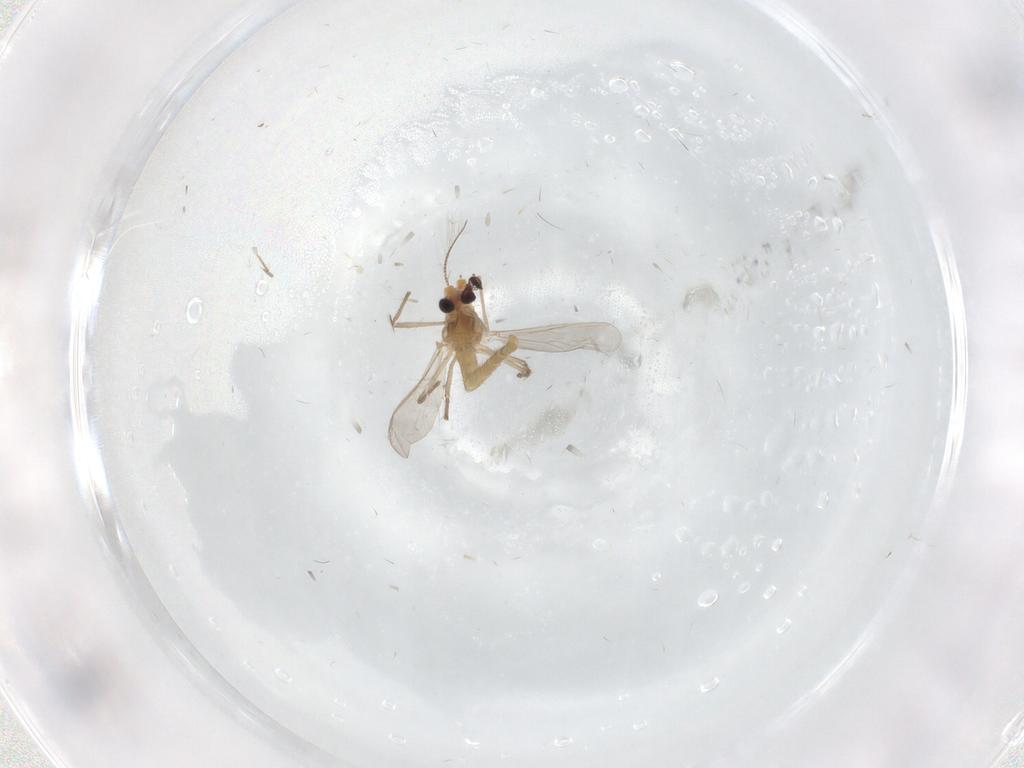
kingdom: Animalia
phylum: Arthropoda
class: Insecta
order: Diptera
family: Chironomidae
